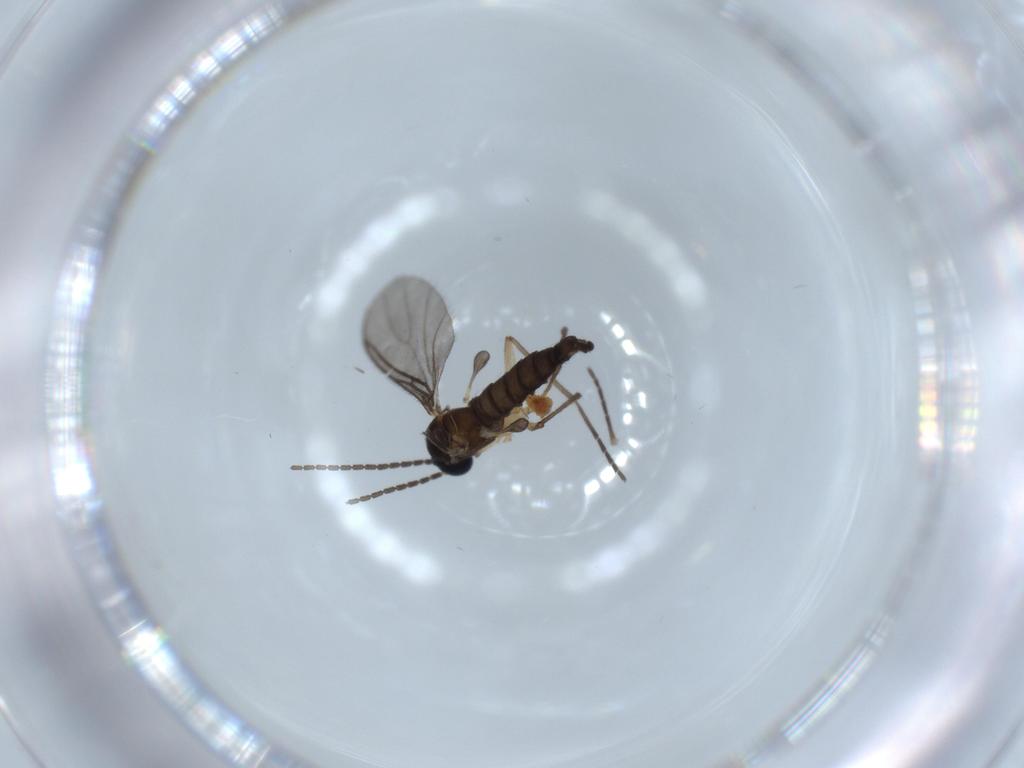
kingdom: Animalia
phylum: Arthropoda
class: Insecta
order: Diptera
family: Sciaridae
